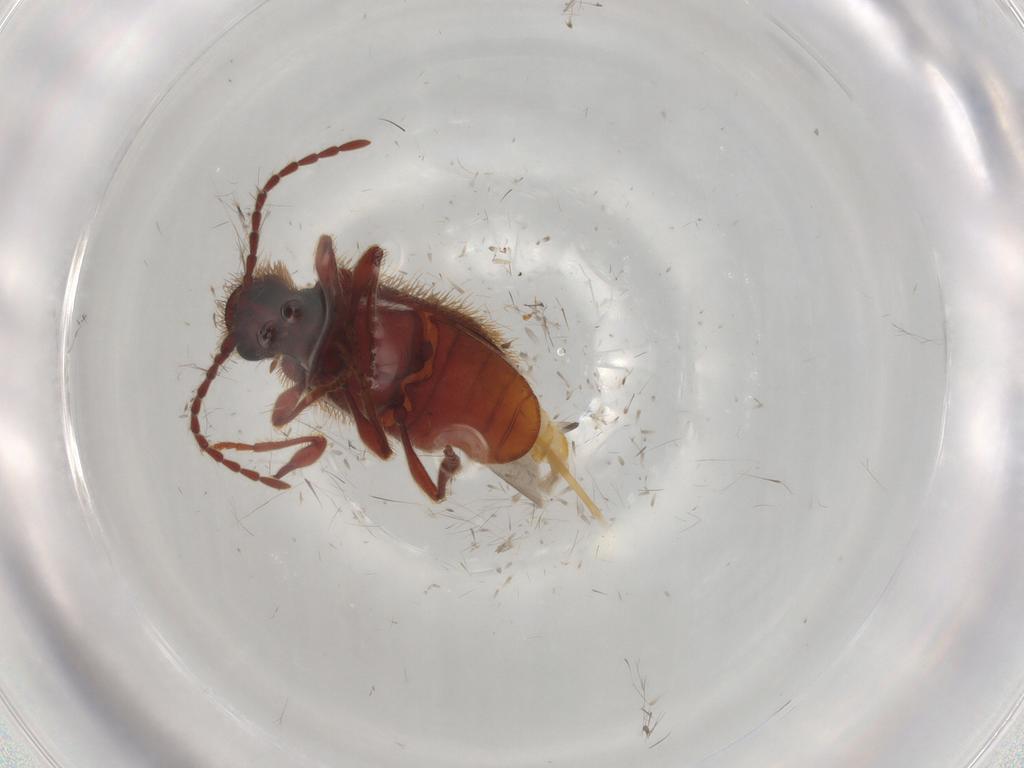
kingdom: Animalia
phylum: Arthropoda
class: Insecta
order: Coleoptera
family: Ptinidae
